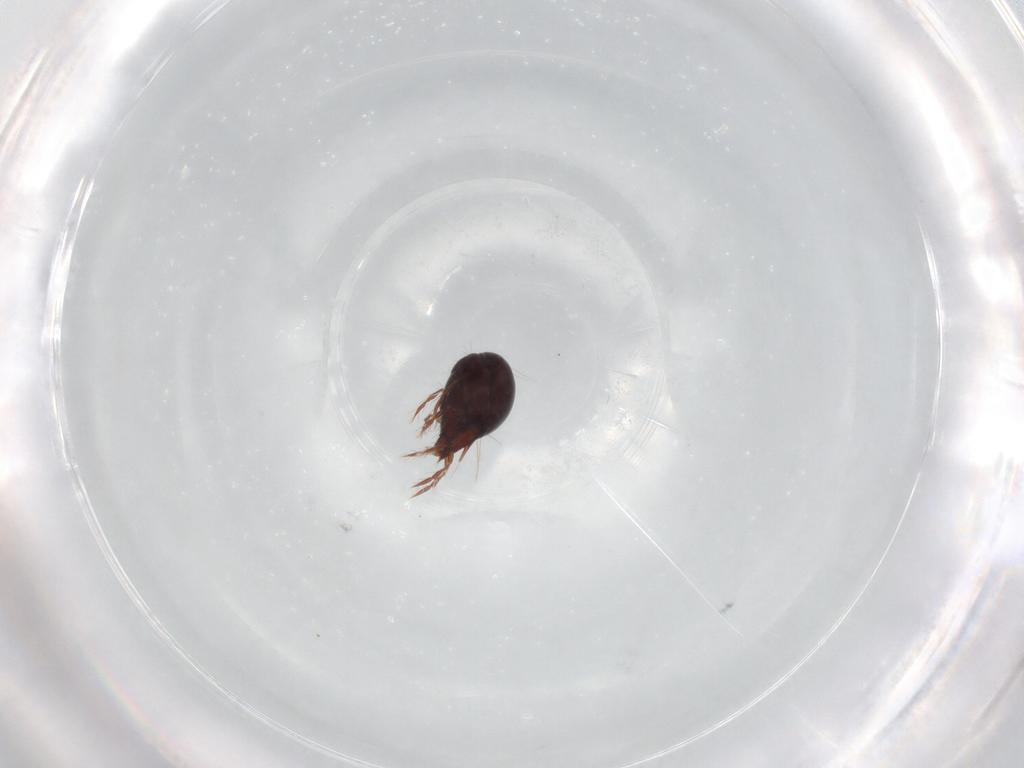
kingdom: Animalia
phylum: Arthropoda
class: Arachnida
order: Sarcoptiformes
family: Ceratoppiidae
